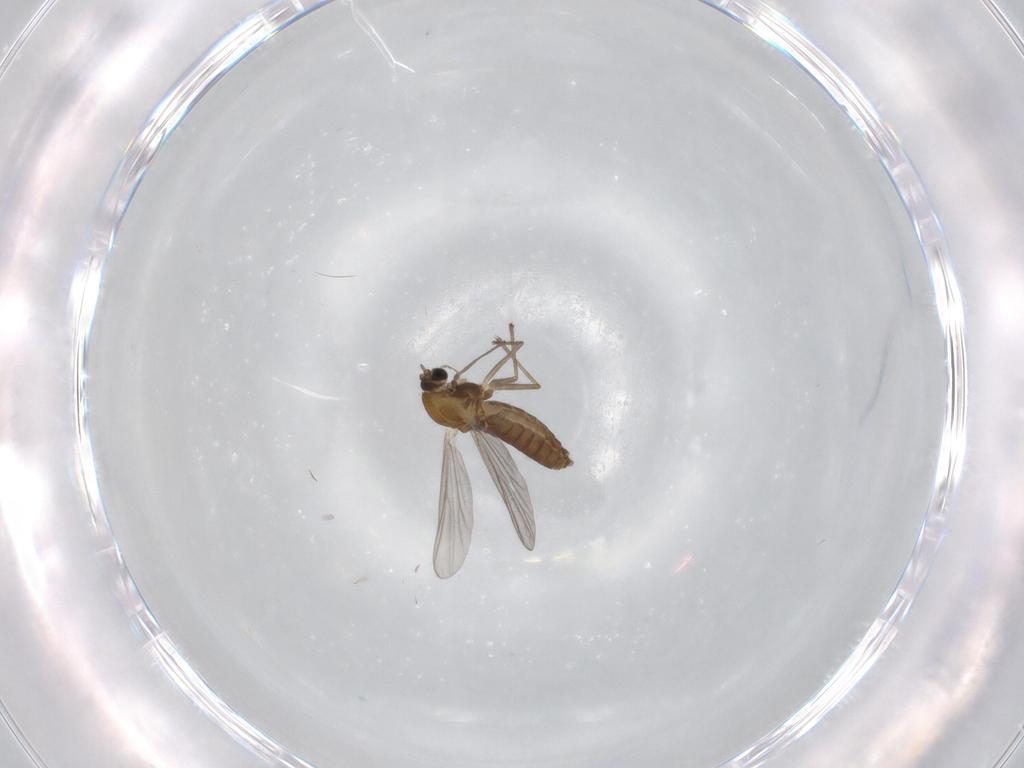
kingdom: Animalia
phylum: Arthropoda
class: Insecta
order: Diptera
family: Chironomidae
